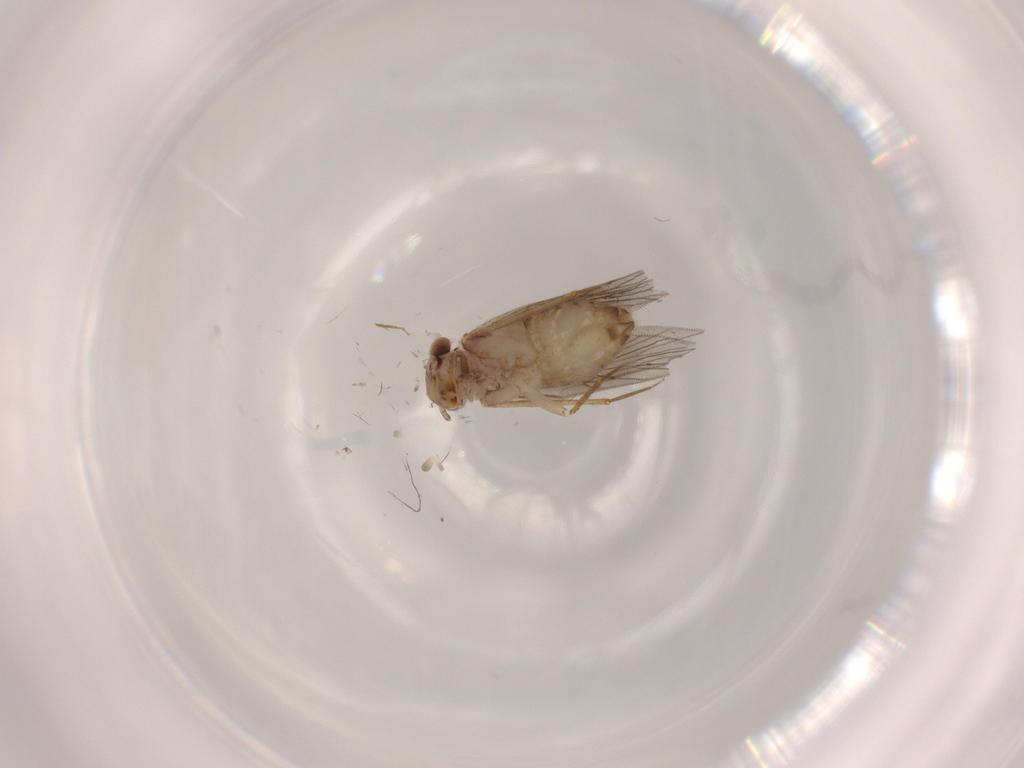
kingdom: Animalia
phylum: Arthropoda
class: Insecta
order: Psocodea
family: Lepidopsocidae
